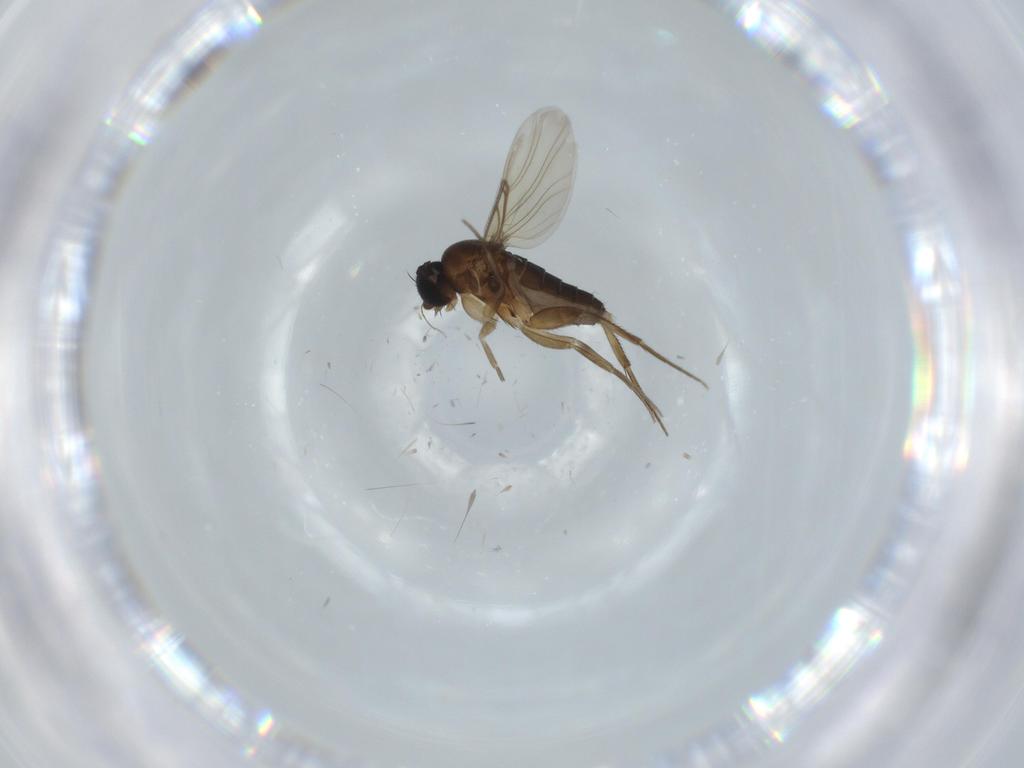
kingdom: Animalia
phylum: Arthropoda
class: Insecta
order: Diptera
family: Phoridae
